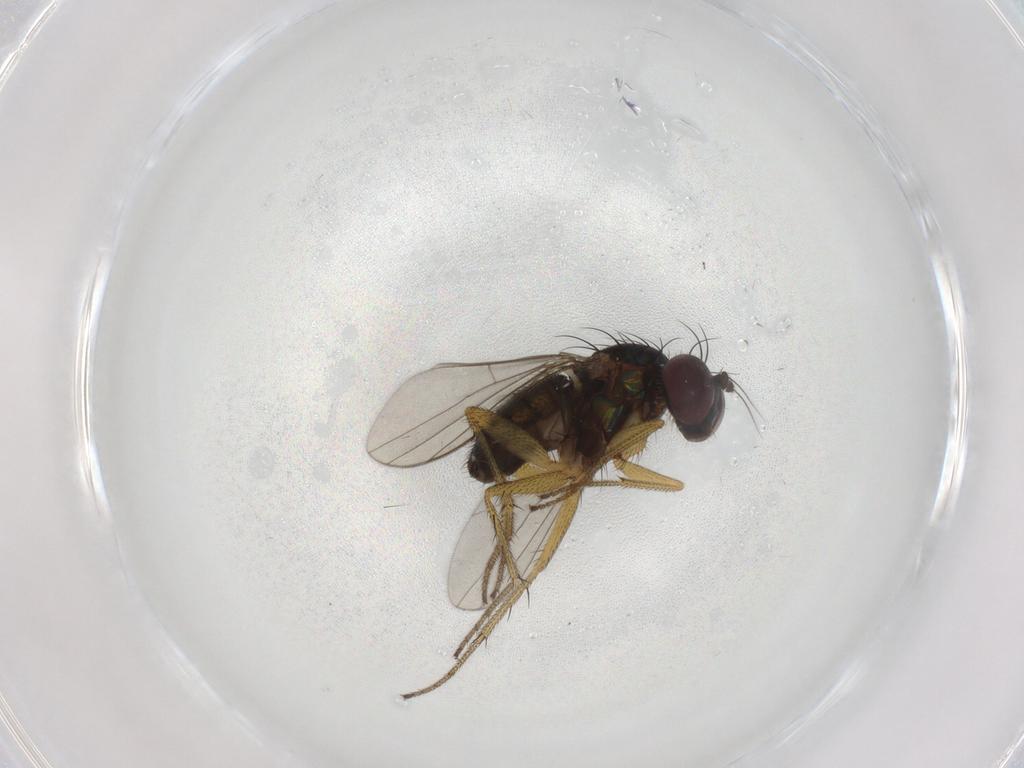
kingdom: Animalia
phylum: Arthropoda
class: Insecta
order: Diptera
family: Dolichopodidae
